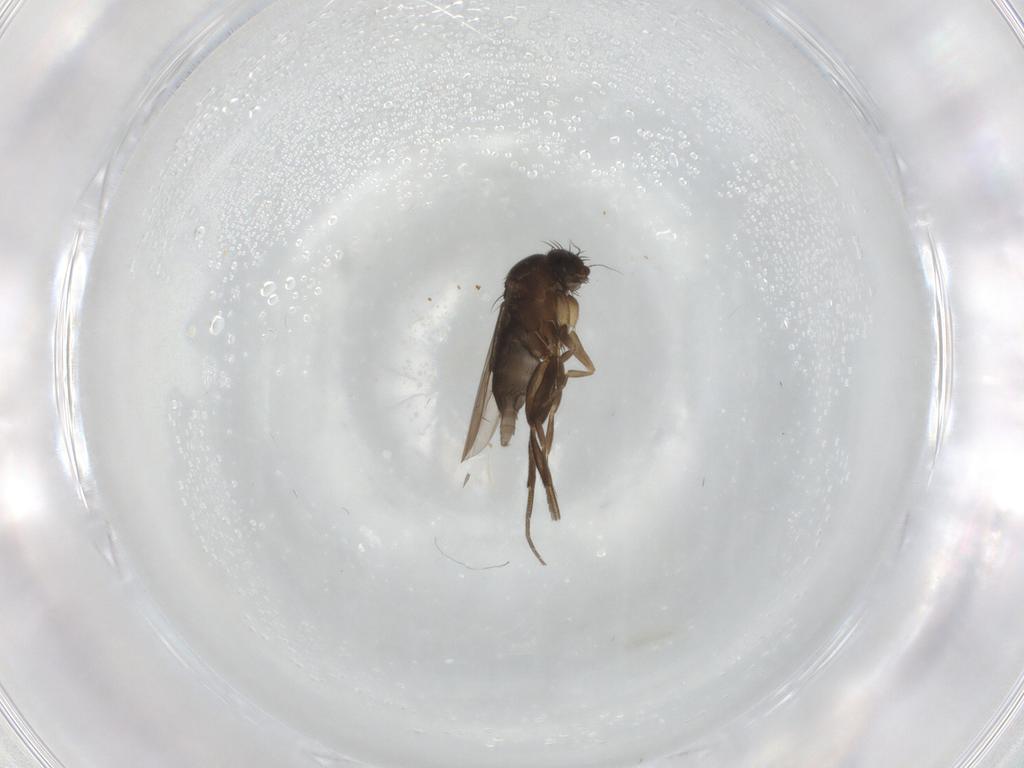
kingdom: Animalia
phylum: Arthropoda
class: Insecta
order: Diptera
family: Phoridae
